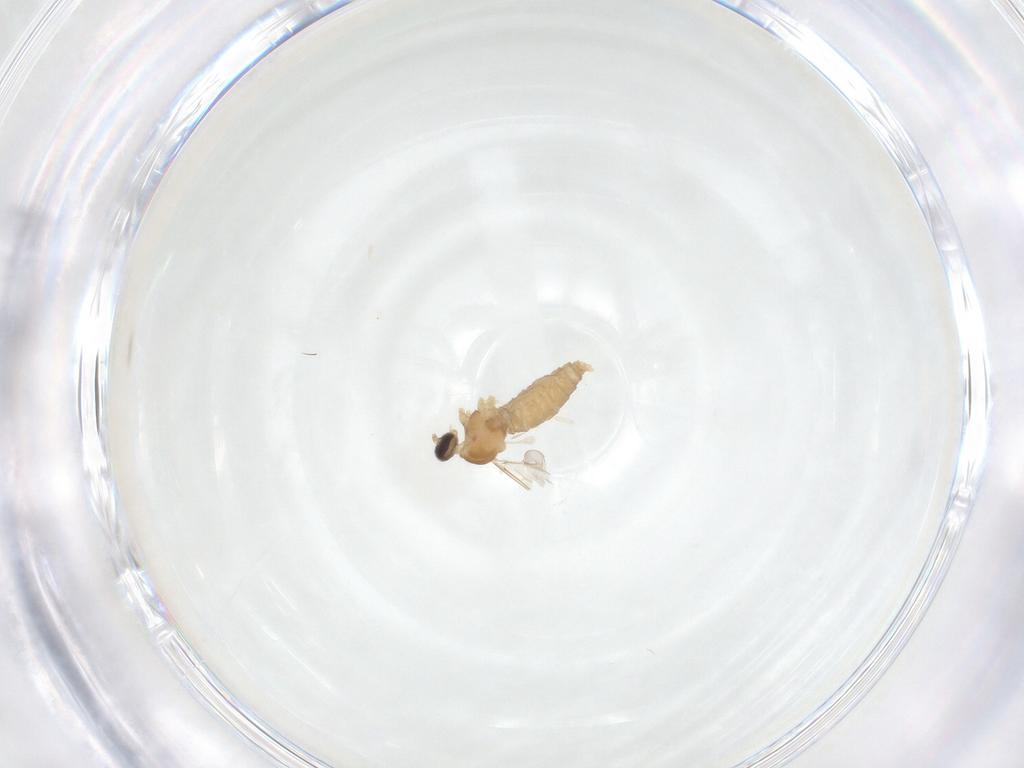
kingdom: Animalia
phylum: Arthropoda
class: Insecta
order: Diptera
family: Cecidomyiidae
